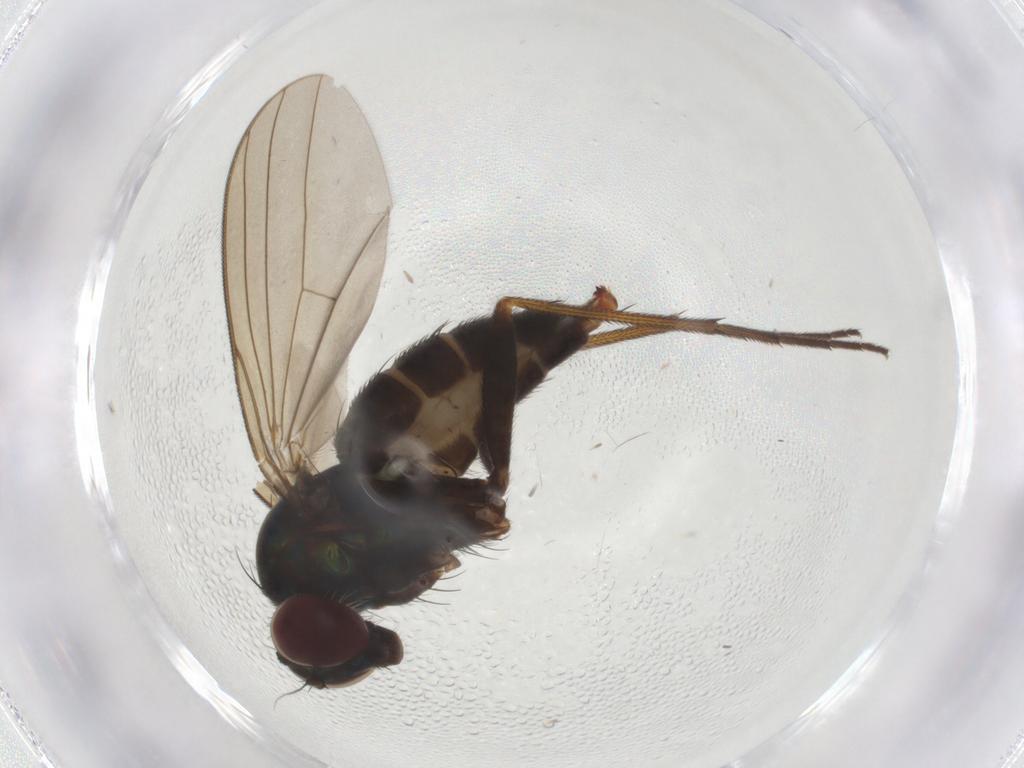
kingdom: Animalia
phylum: Arthropoda
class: Insecta
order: Diptera
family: Dolichopodidae
